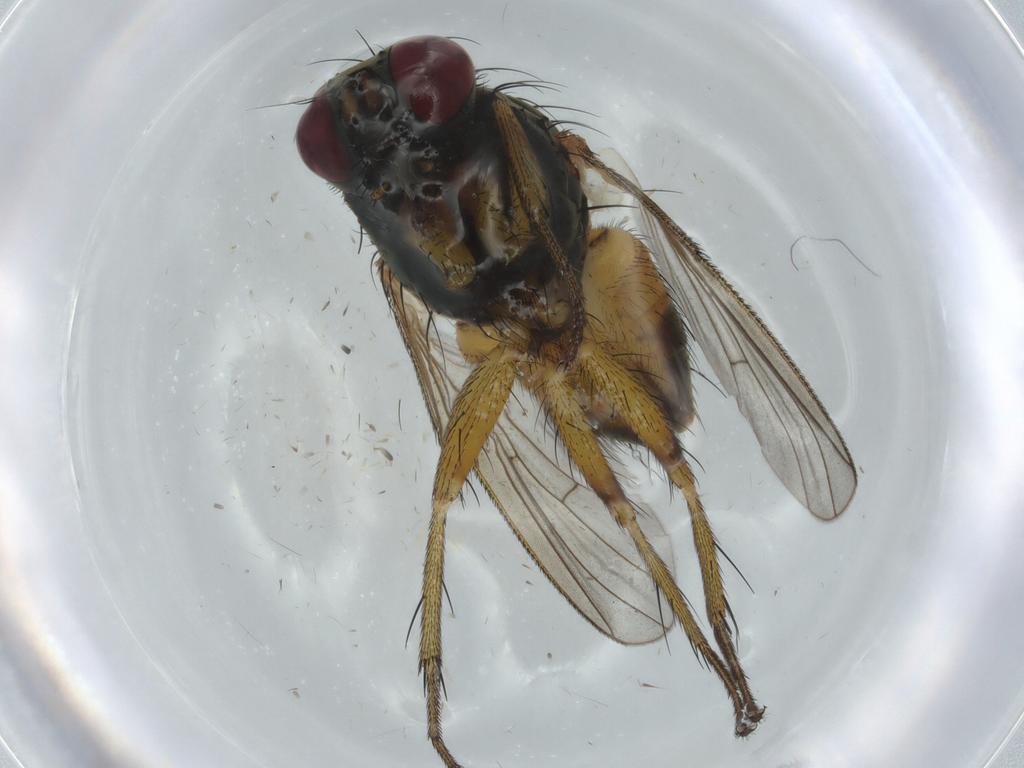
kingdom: Animalia
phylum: Arthropoda
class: Insecta
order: Diptera
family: Muscidae
